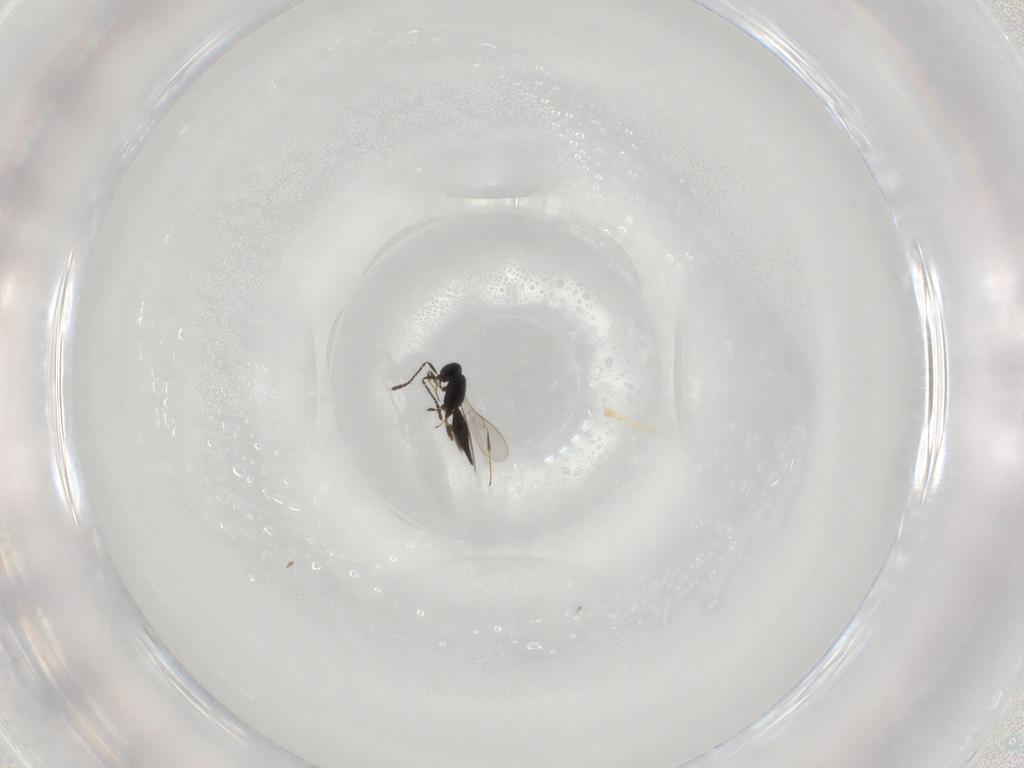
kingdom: Animalia
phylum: Arthropoda
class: Insecta
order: Hymenoptera
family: Scelionidae
